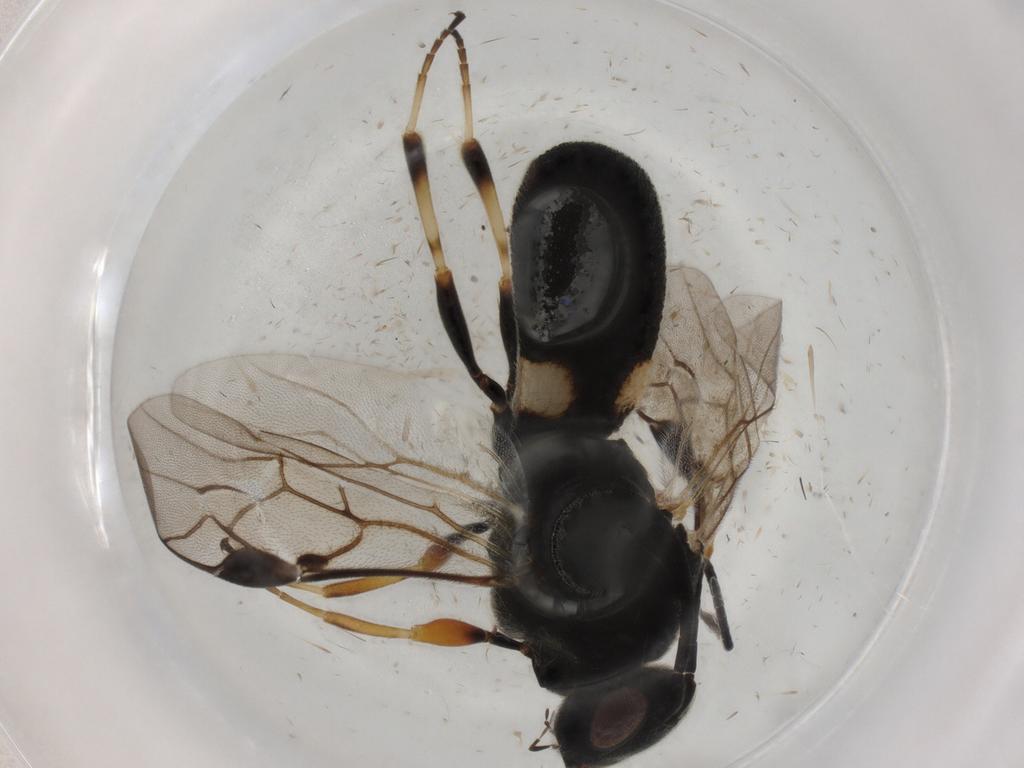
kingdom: Animalia
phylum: Arthropoda
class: Insecta
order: Hymenoptera
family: Braconidae
